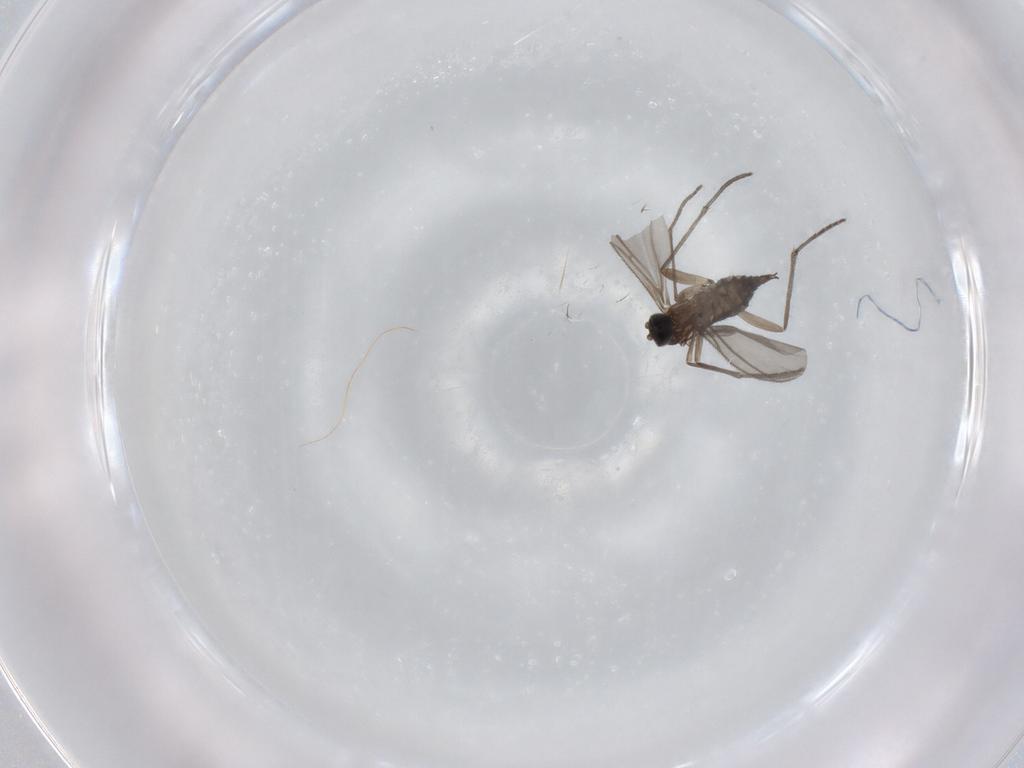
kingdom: Animalia
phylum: Arthropoda
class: Insecta
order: Diptera
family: Sciaridae
